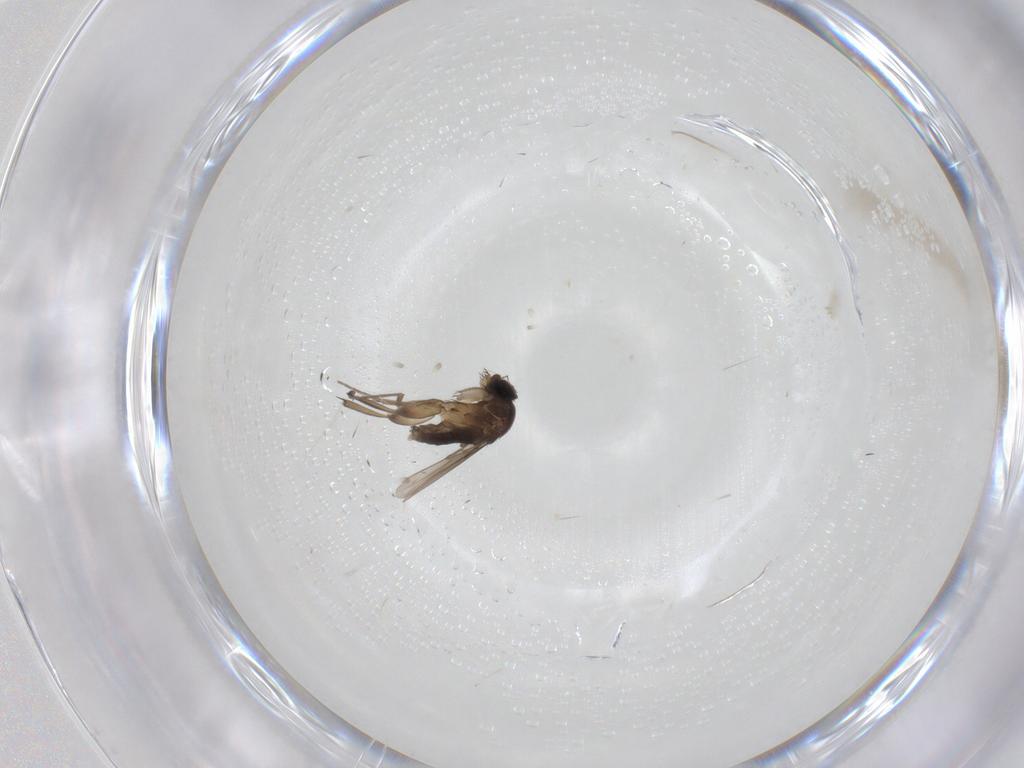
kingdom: Animalia
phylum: Arthropoda
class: Insecta
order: Diptera
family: Phoridae
